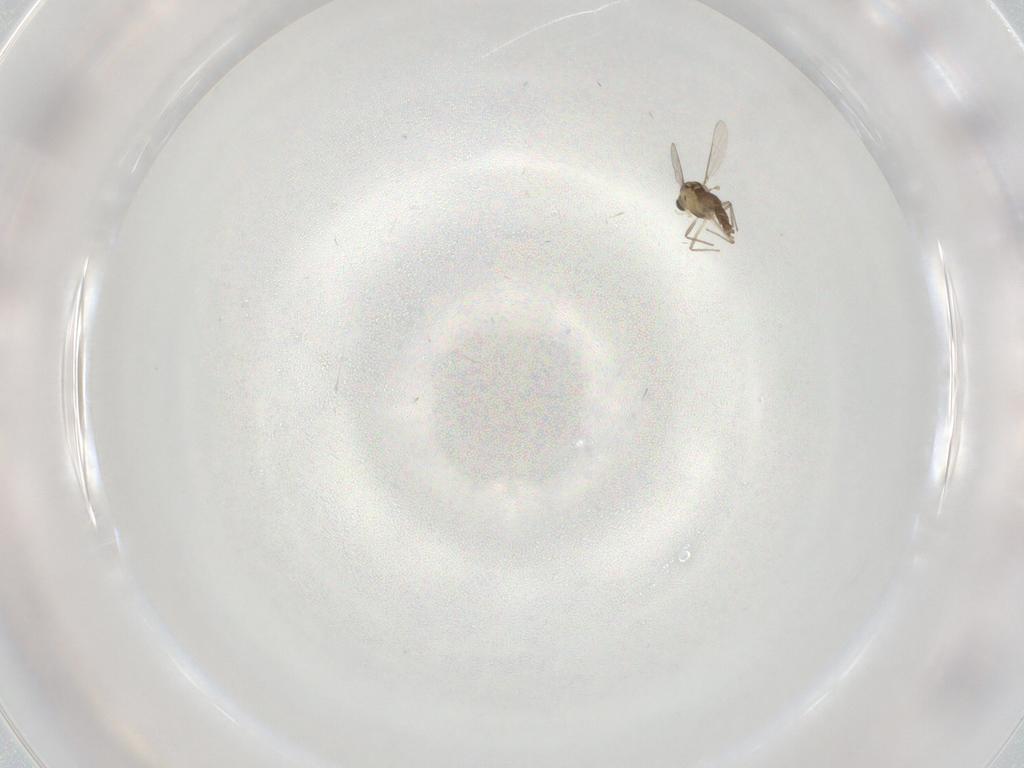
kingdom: Animalia
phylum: Arthropoda
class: Insecta
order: Diptera
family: Chironomidae
